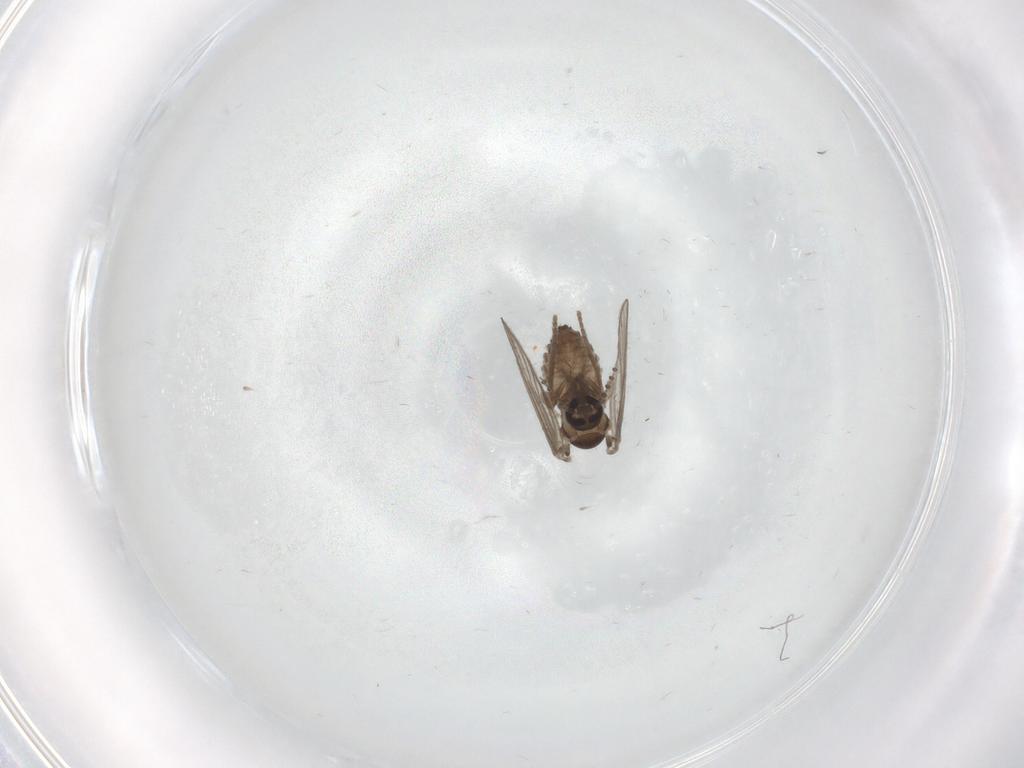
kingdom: Animalia
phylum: Arthropoda
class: Insecta
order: Diptera
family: Psychodidae
